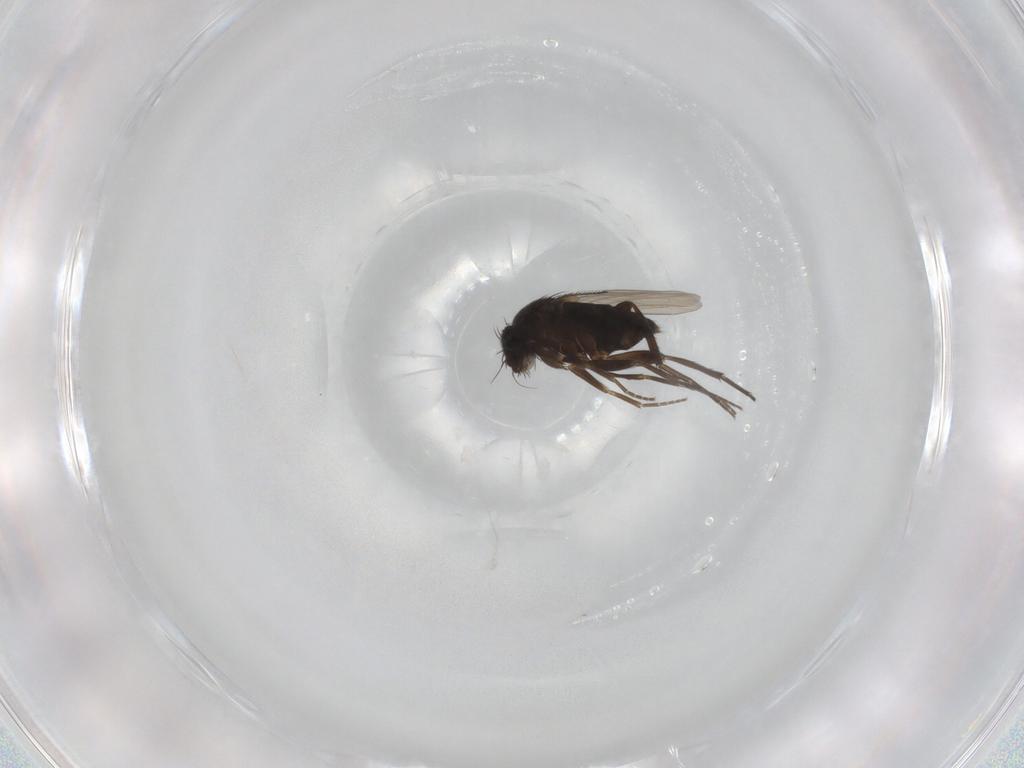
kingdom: Animalia
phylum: Arthropoda
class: Insecta
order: Diptera
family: Phoridae
